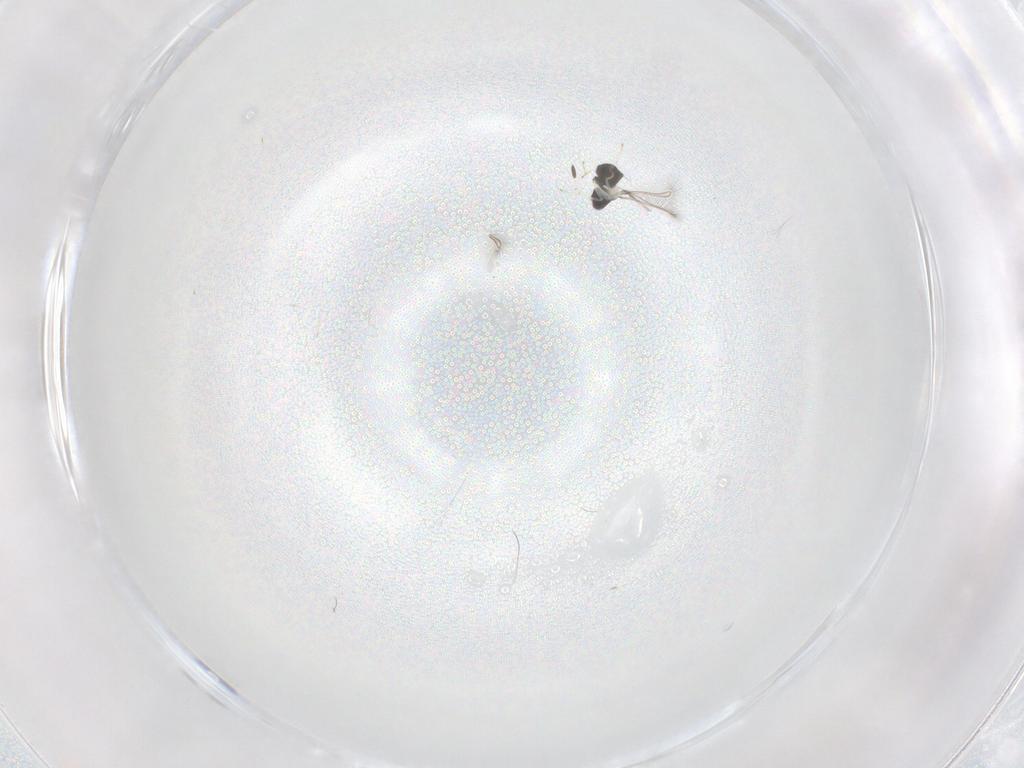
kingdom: Animalia
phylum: Arthropoda
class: Insecta
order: Hymenoptera
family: Mymaridae
